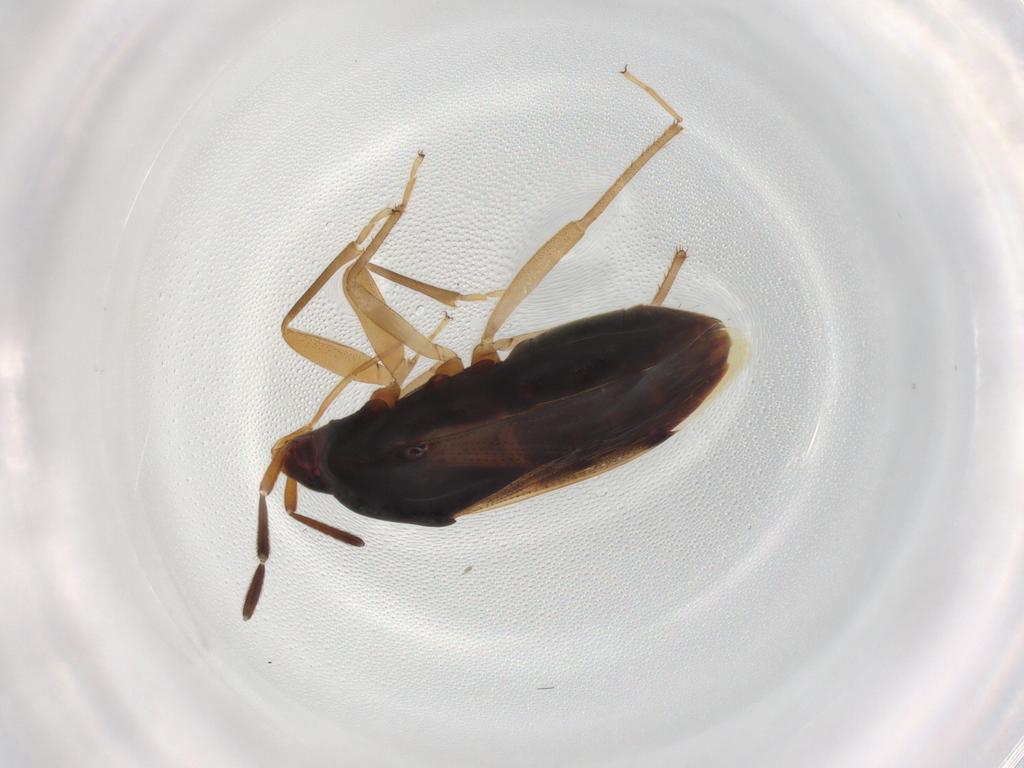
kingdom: Animalia
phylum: Arthropoda
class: Insecta
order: Hemiptera
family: Rhyparochromidae
